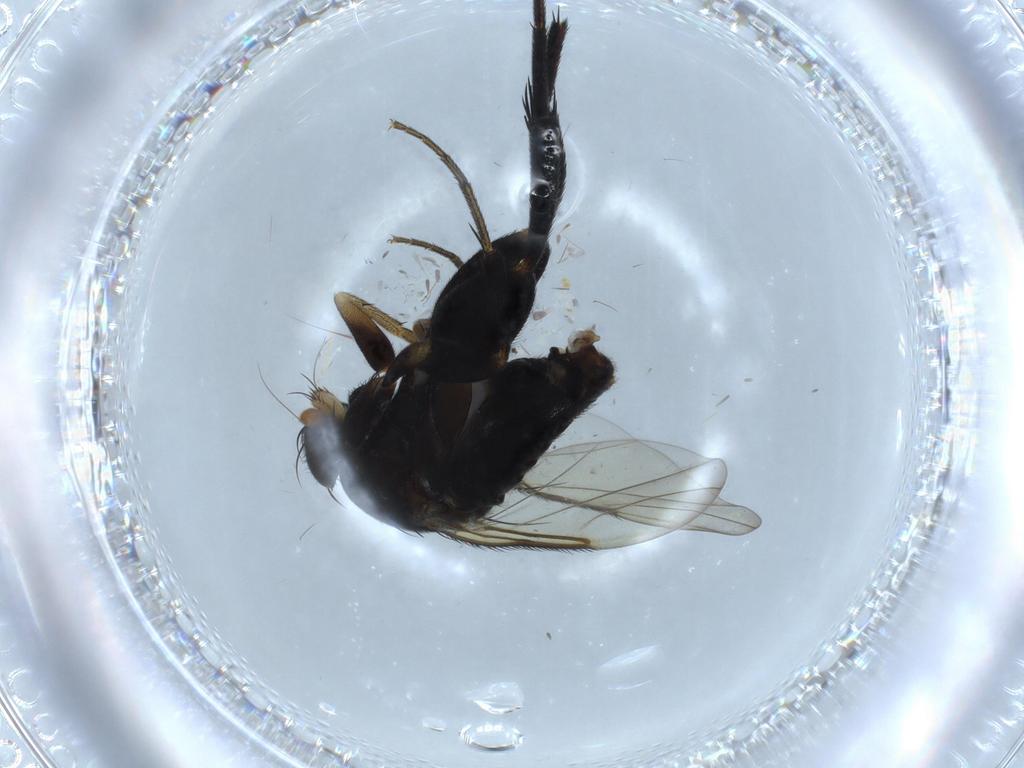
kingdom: Animalia
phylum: Arthropoda
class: Insecta
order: Diptera
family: Phoridae
